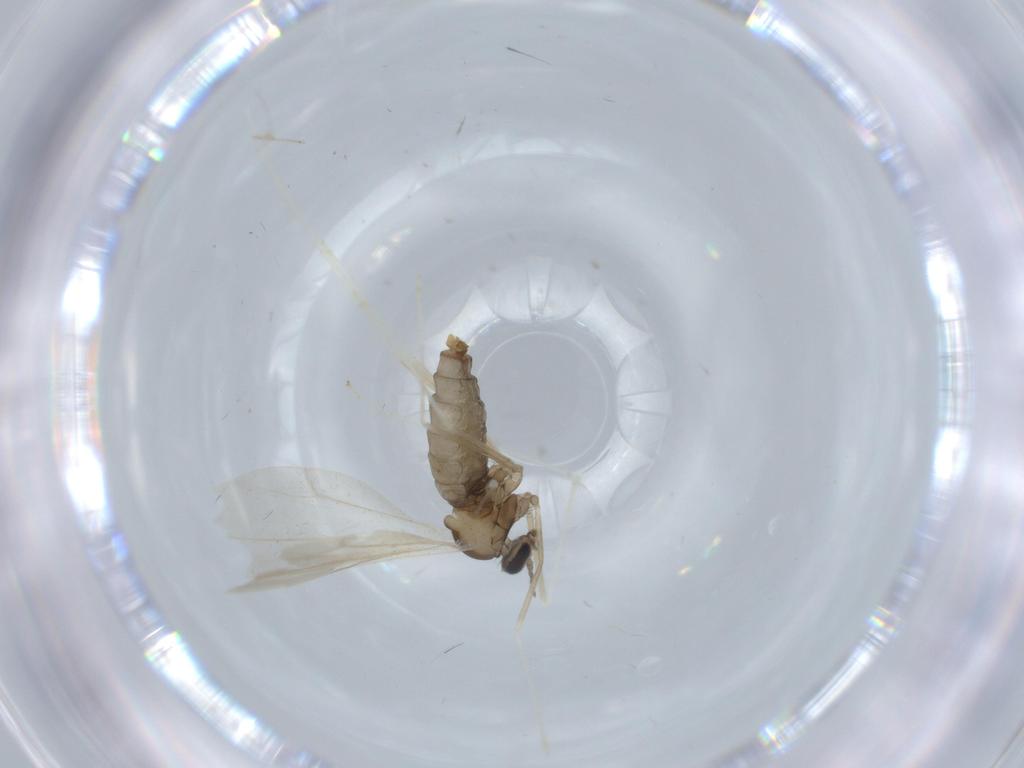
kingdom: Animalia
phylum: Arthropoda
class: Insecta
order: Diptera
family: Cecidomyiidae
